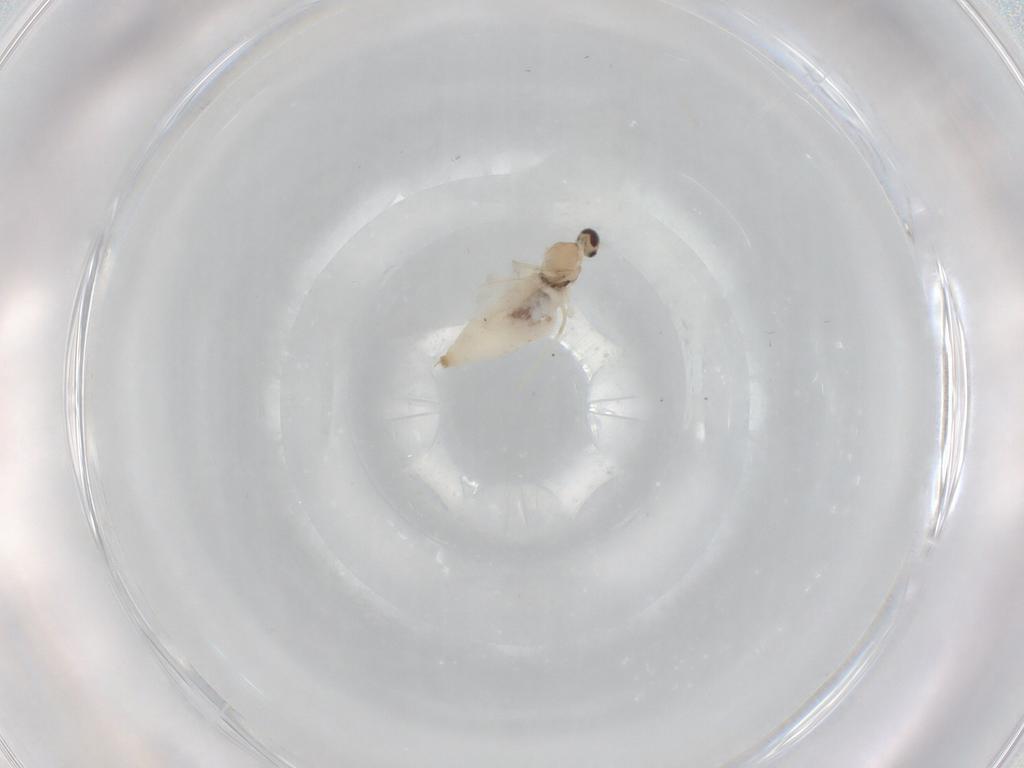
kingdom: Animalia
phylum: Arthropoda
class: Insecta
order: Diptera
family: Cecidomyiidae
